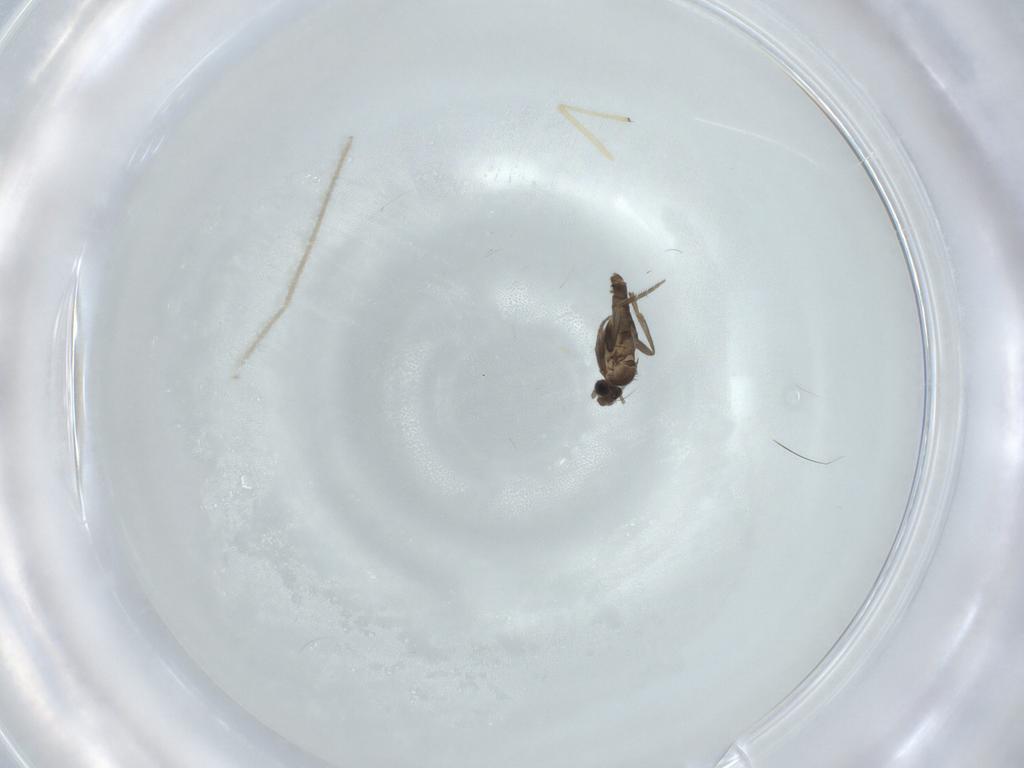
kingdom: Animalia
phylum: Arthropoda
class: Insecta
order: Diptera
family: Chironomidae
